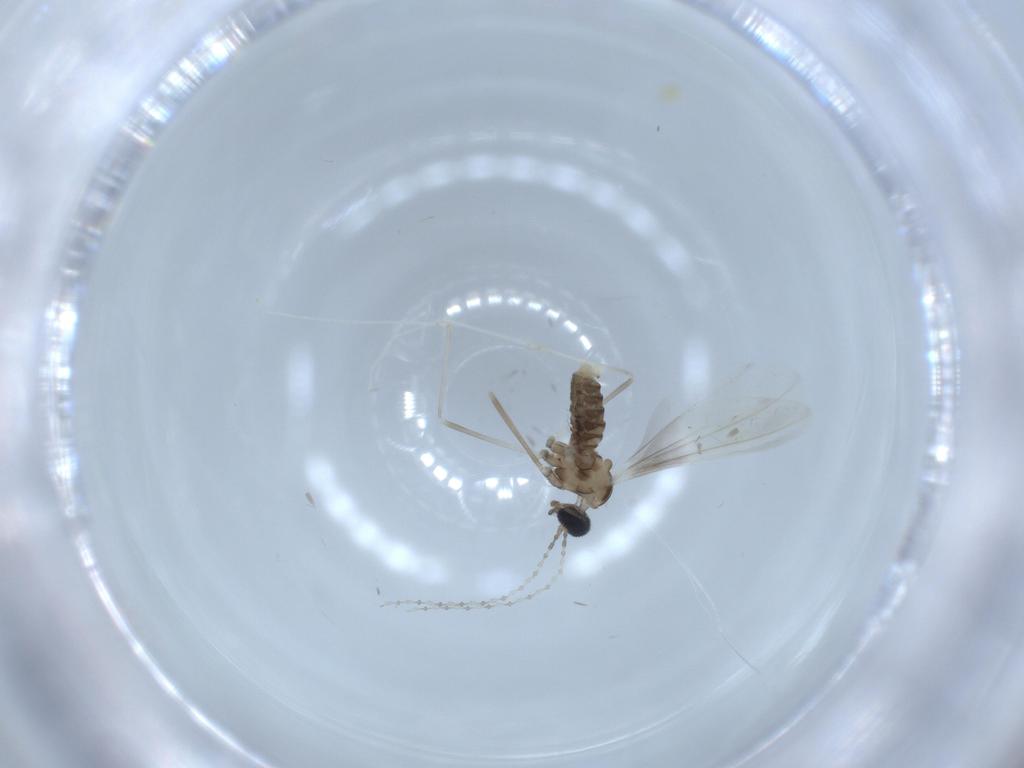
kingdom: Animalia
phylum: Arthropoda
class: Insecta
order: Diptera
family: Cecidomyiidae
